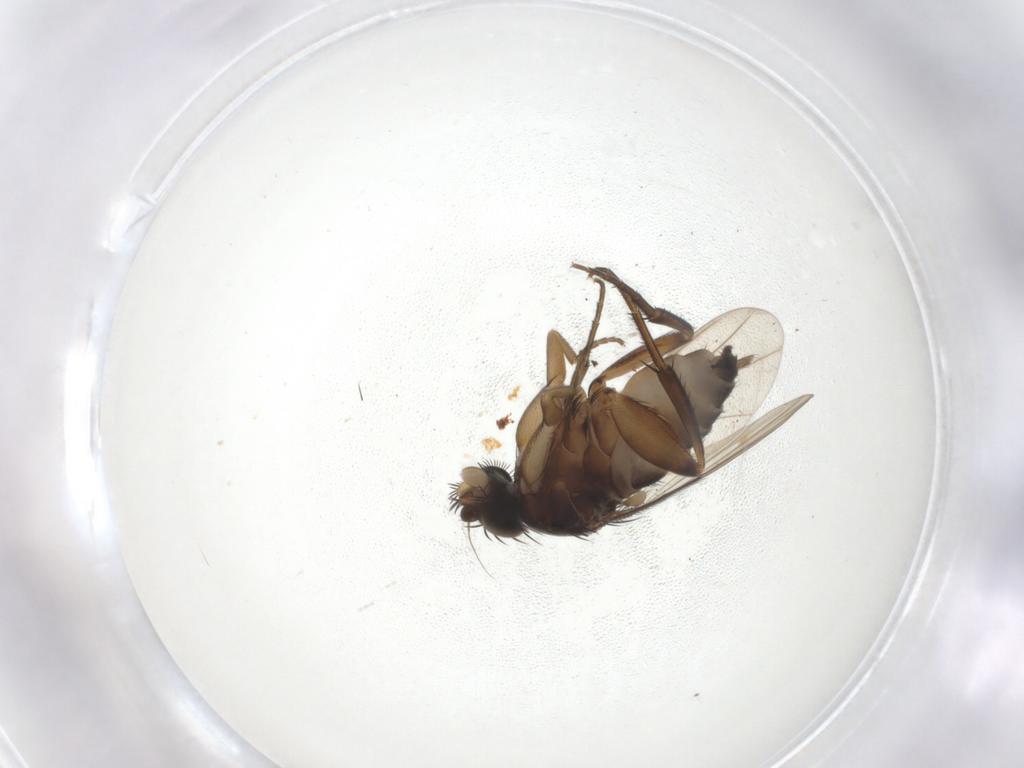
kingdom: Animalia
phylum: Arthropoda
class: Insecta
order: Diptera
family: Phoridae
